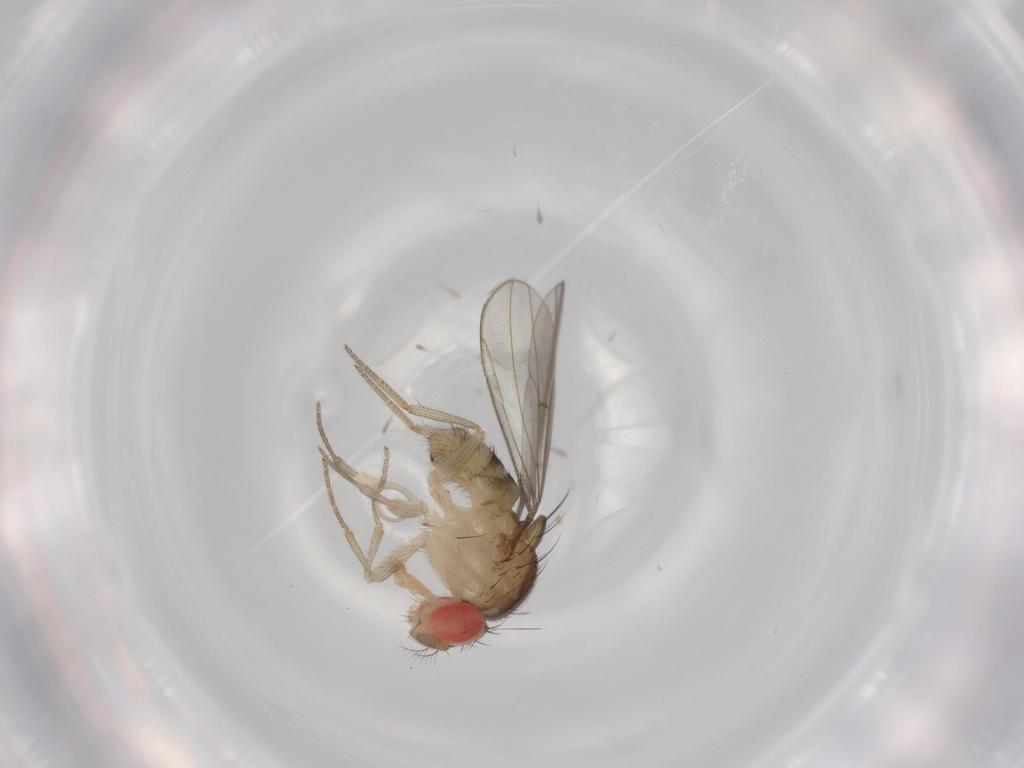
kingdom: Animalia
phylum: Arthropoda
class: Insecta
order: Diptera
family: Drosophilidae
